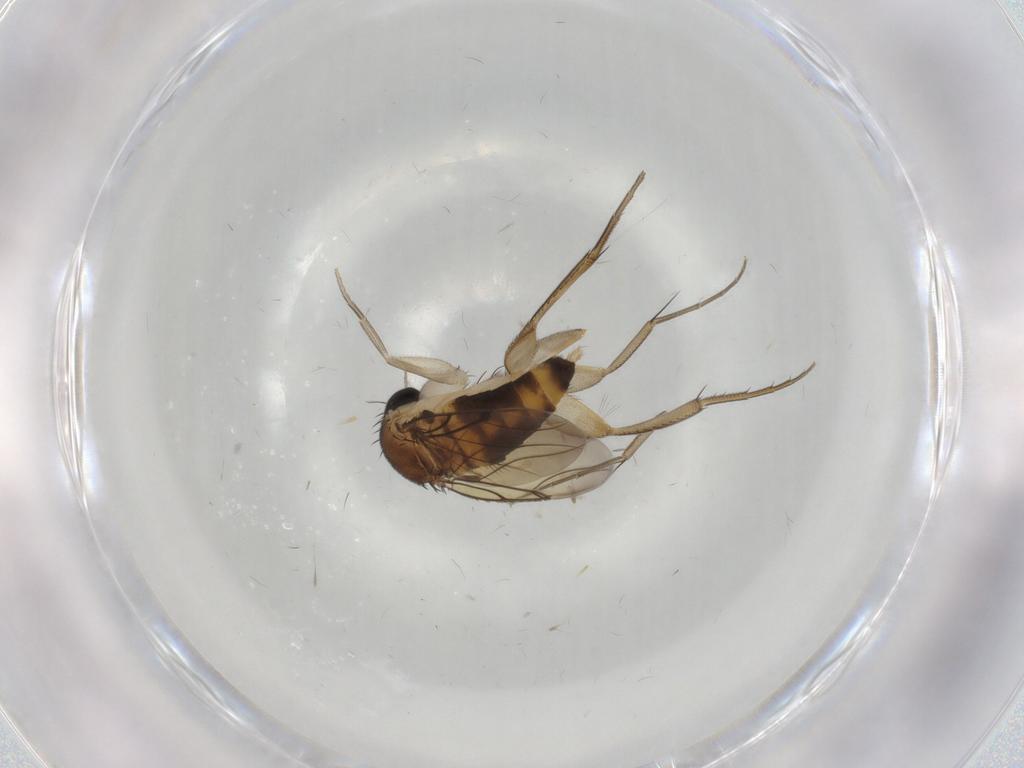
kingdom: Animalia
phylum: Arthropoda
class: Insecta
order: Diptera
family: Chironomidae
